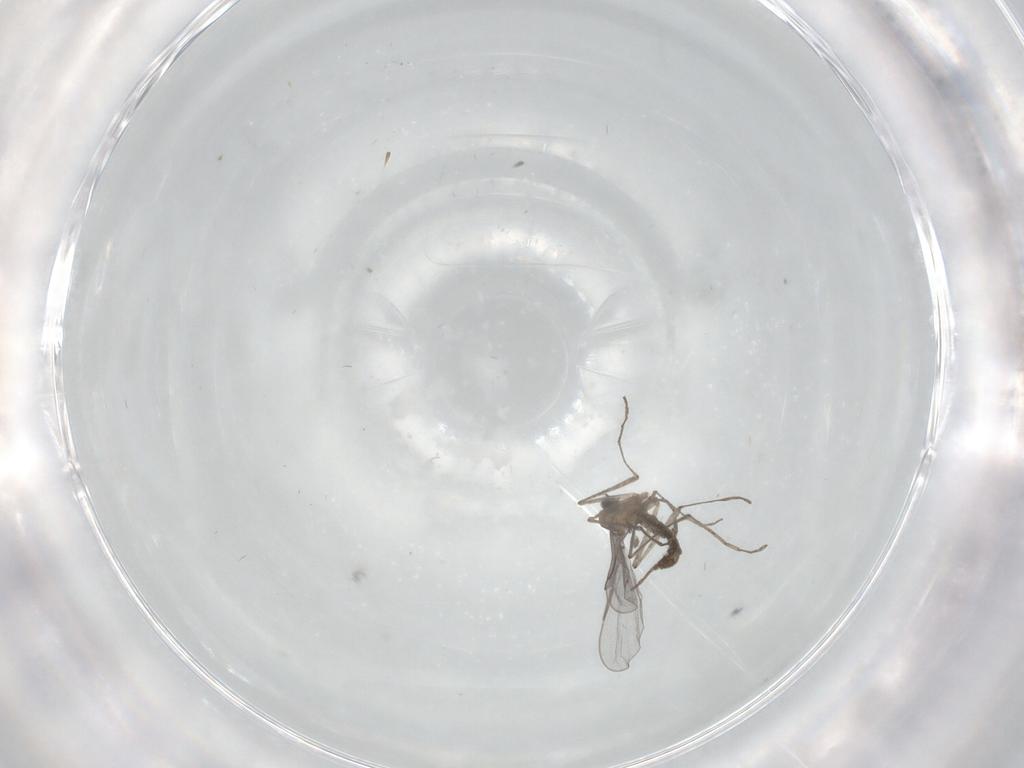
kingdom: Animalia
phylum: Arthropoda
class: Insecta
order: Diptera
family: Cecidomyiidae
